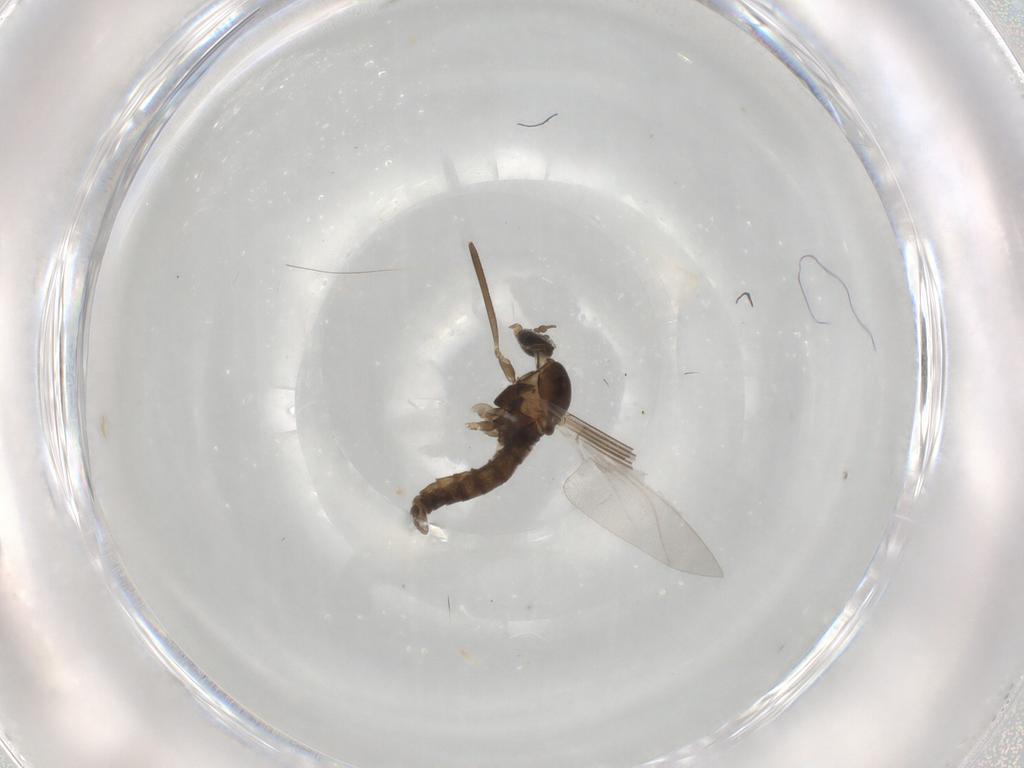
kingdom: Animalia
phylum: Arthropoda
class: Insecta
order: Diptera
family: Cecidomyiidae
